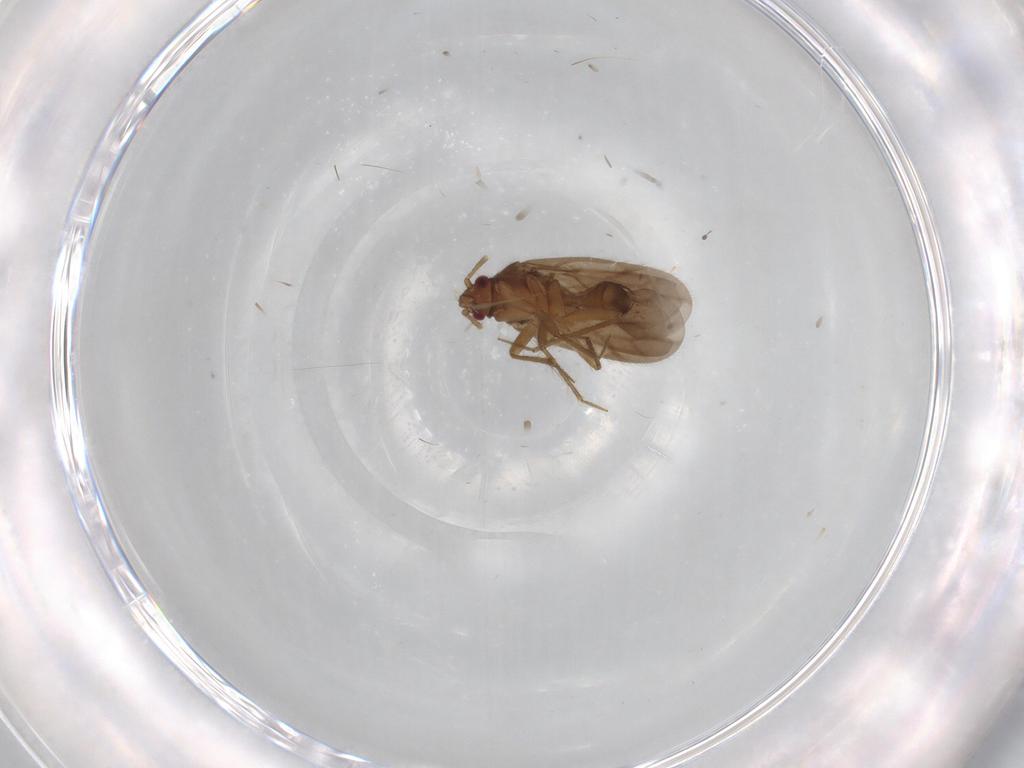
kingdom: Animalia
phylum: Arthropoda
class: Insecta
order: Hemiptera
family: Ceratocombidae
